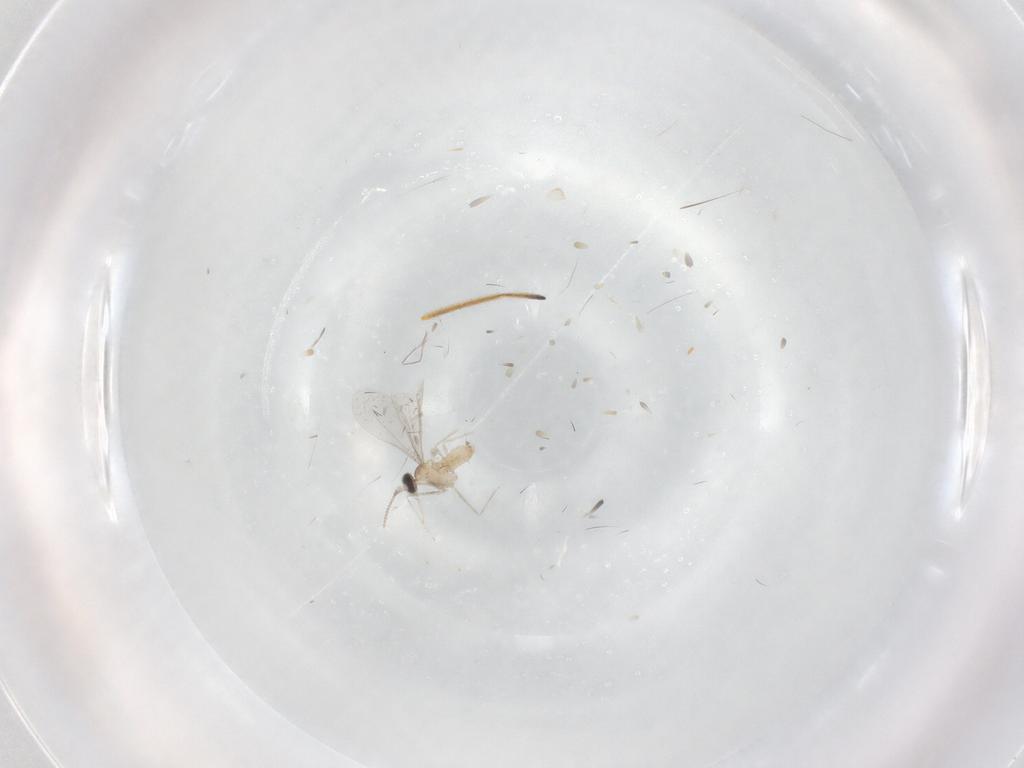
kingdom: Animalia
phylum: Arthropoda
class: Insecta
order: Diptera
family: Cecidomyiidae
